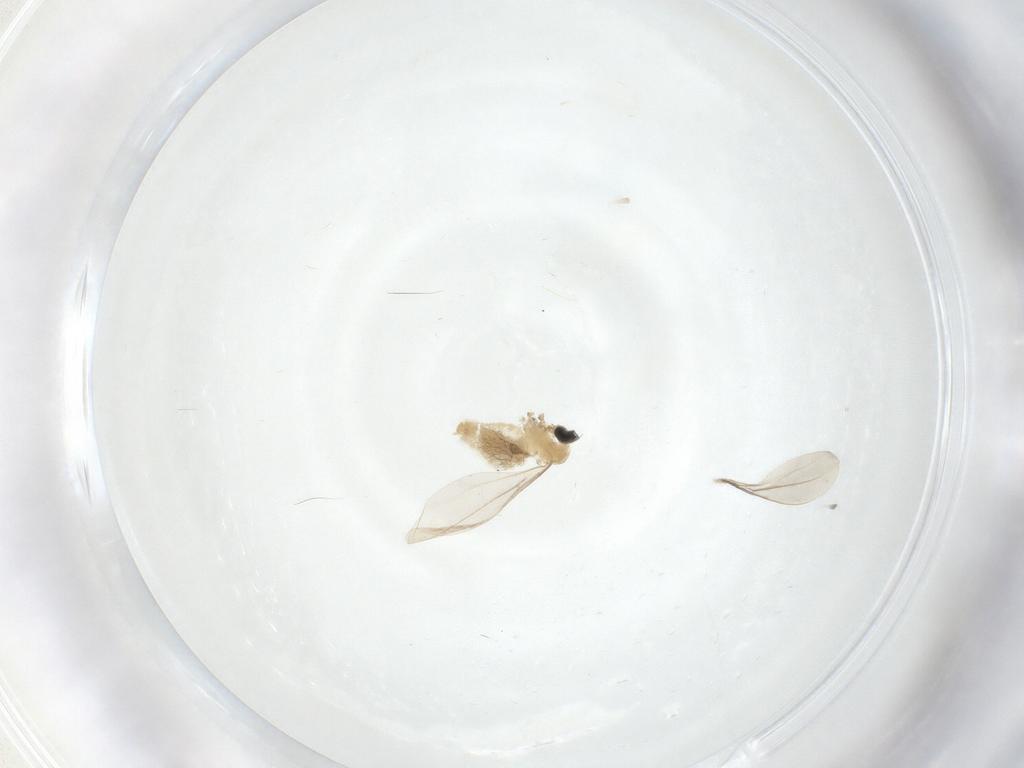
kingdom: Animalia
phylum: Arthropoda
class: Insecta
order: Diptera
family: Cecidomyiidae
